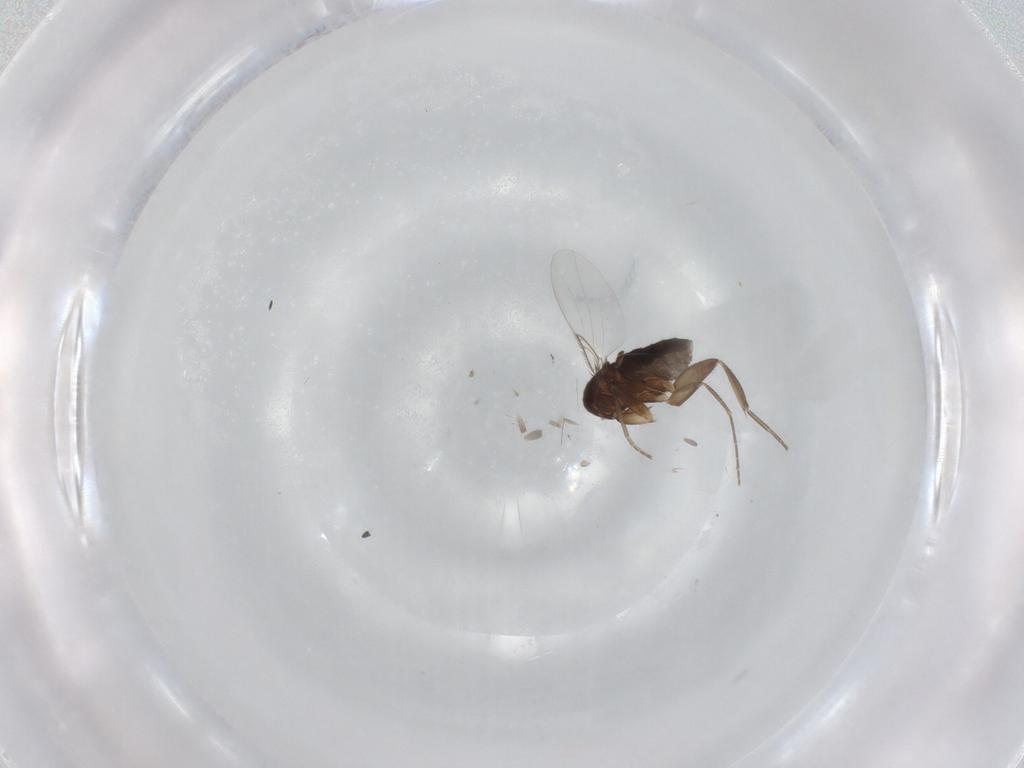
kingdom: Animalia
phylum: Arthropoda
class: Insecta
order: Diptera
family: Phoridae
